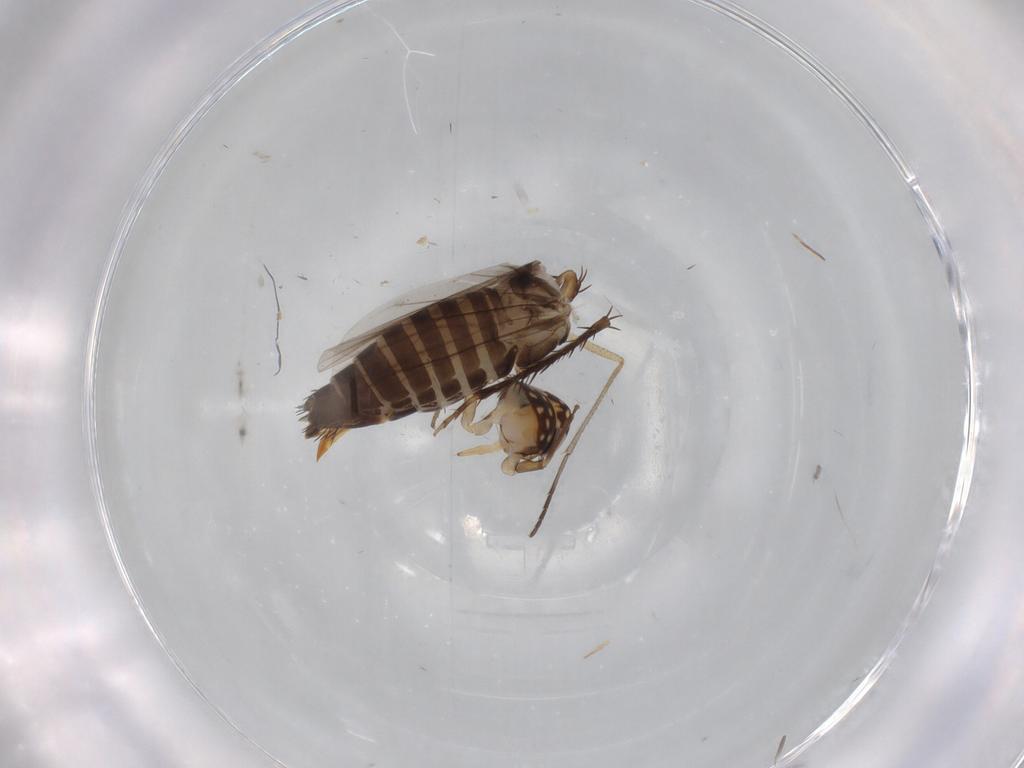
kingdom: Animalia
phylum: Arthropoda
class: Insecta
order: Hemiptera
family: Cicadellidae
